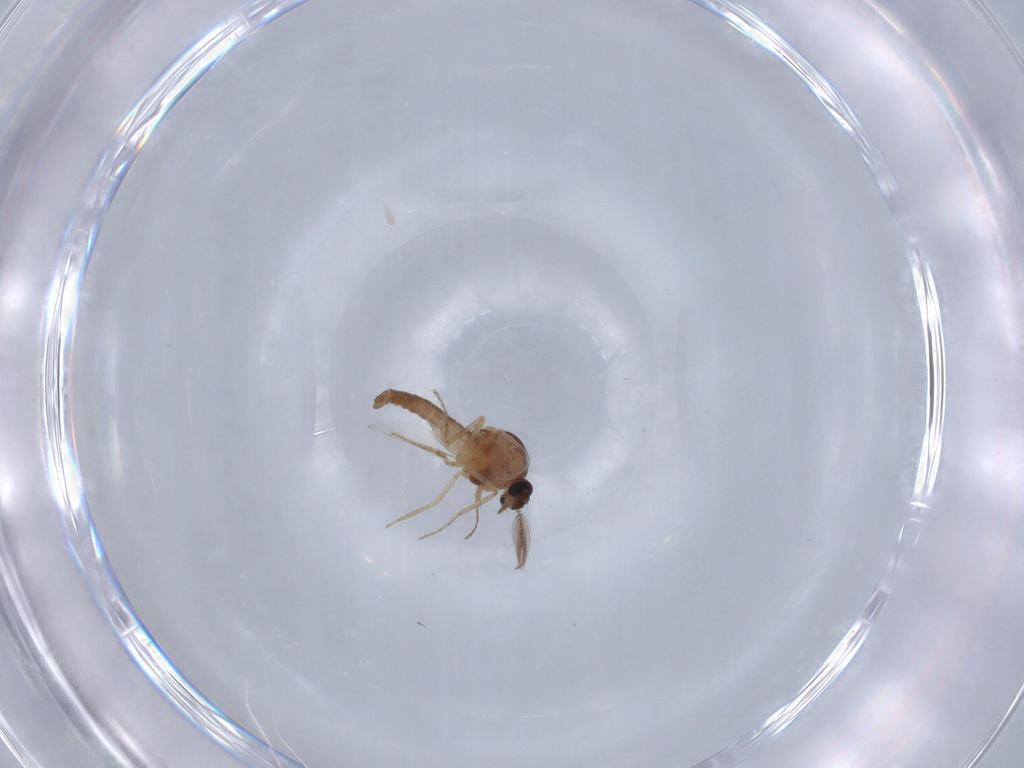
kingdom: Animalia
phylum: Arthropoda
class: Insecta
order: Diptera
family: Ceratopogonidae
